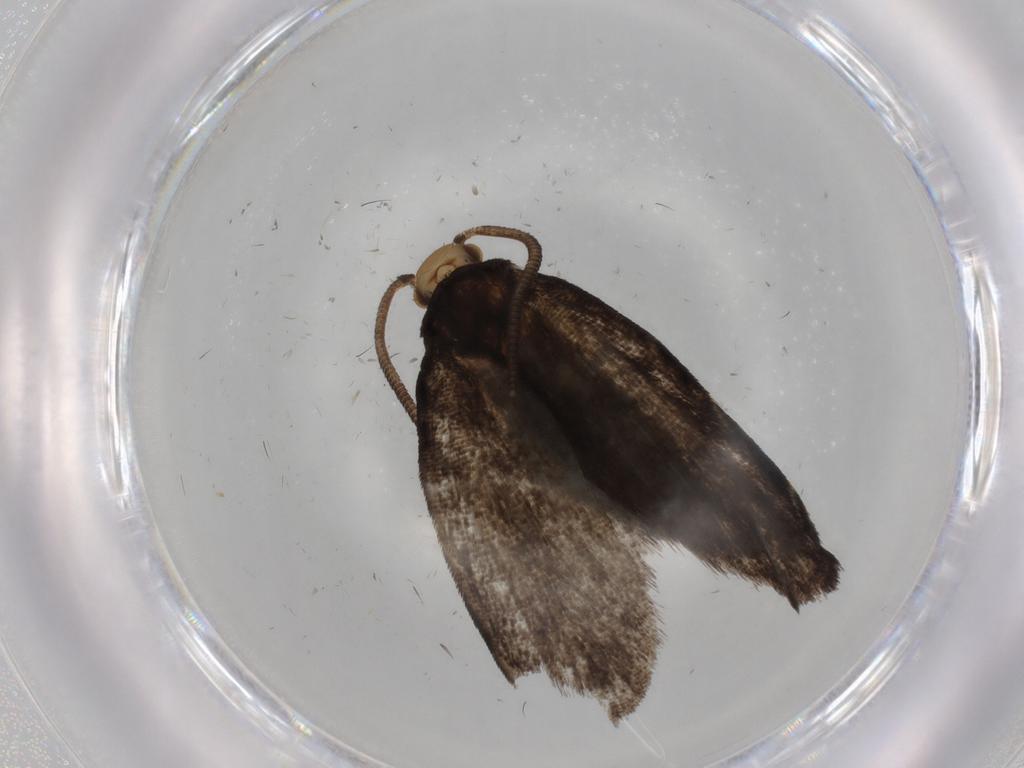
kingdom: Animalia
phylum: Arthropoda
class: Insecta
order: Lepidoptera
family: Dryadaulidae
